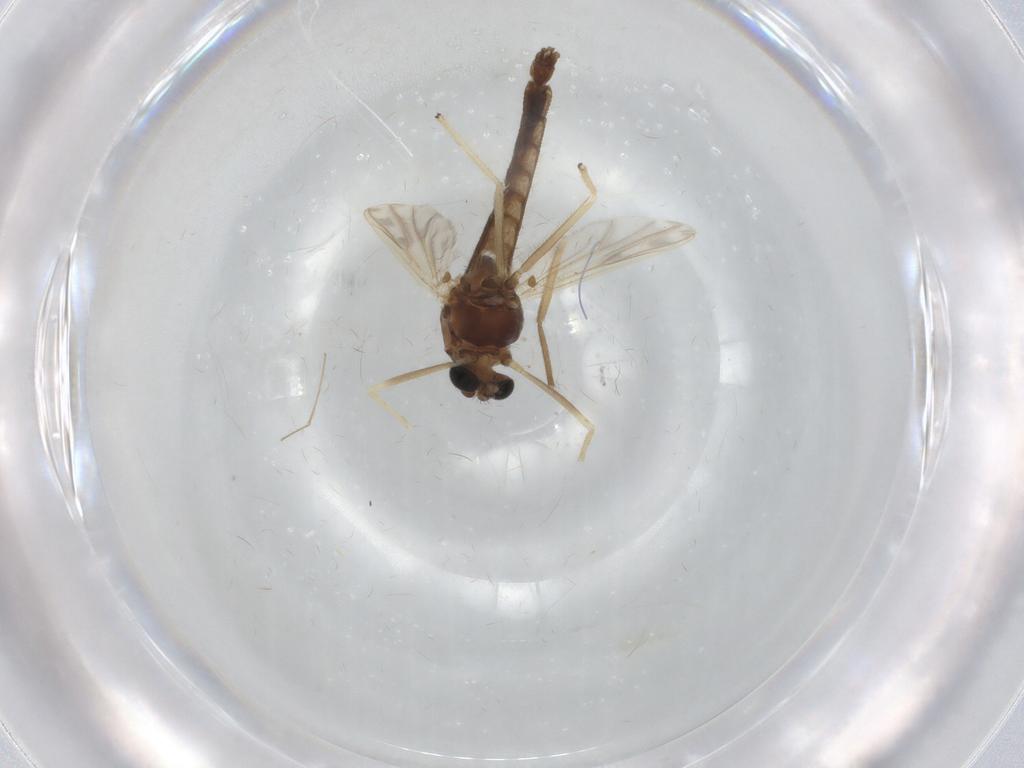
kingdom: Animalia
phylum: Arthropoda
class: Insecta
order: Diptera
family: Chironomidae
